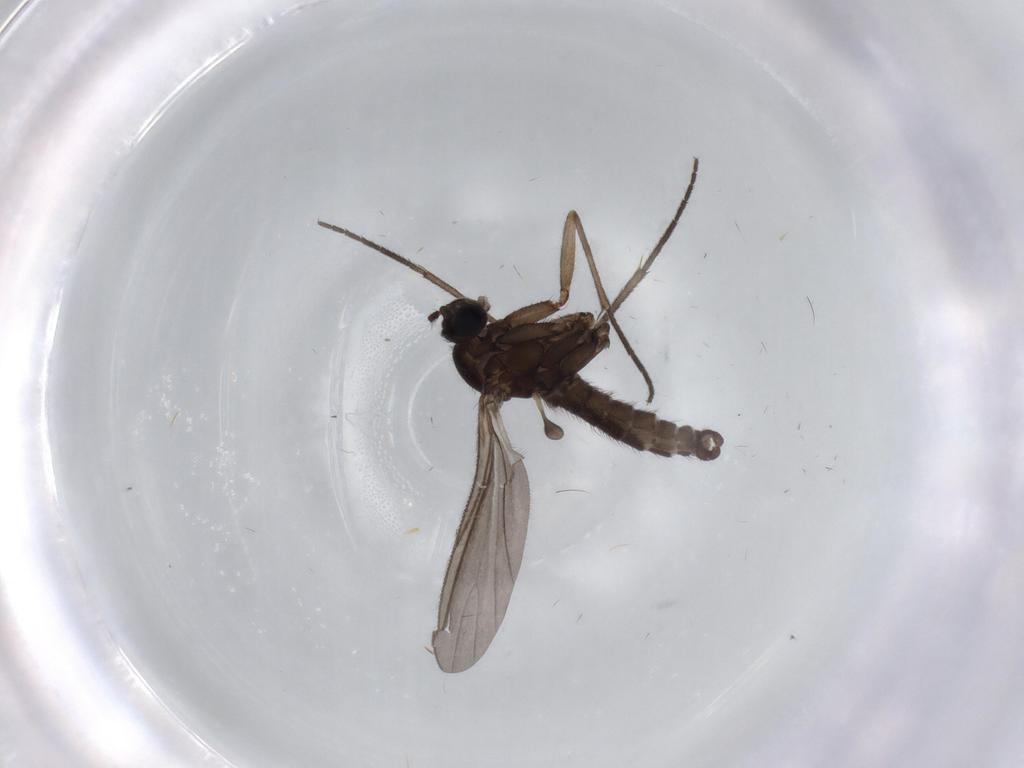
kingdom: Animalia
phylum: Arthropoda
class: Insecta
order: Diptera
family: Psychodidae
